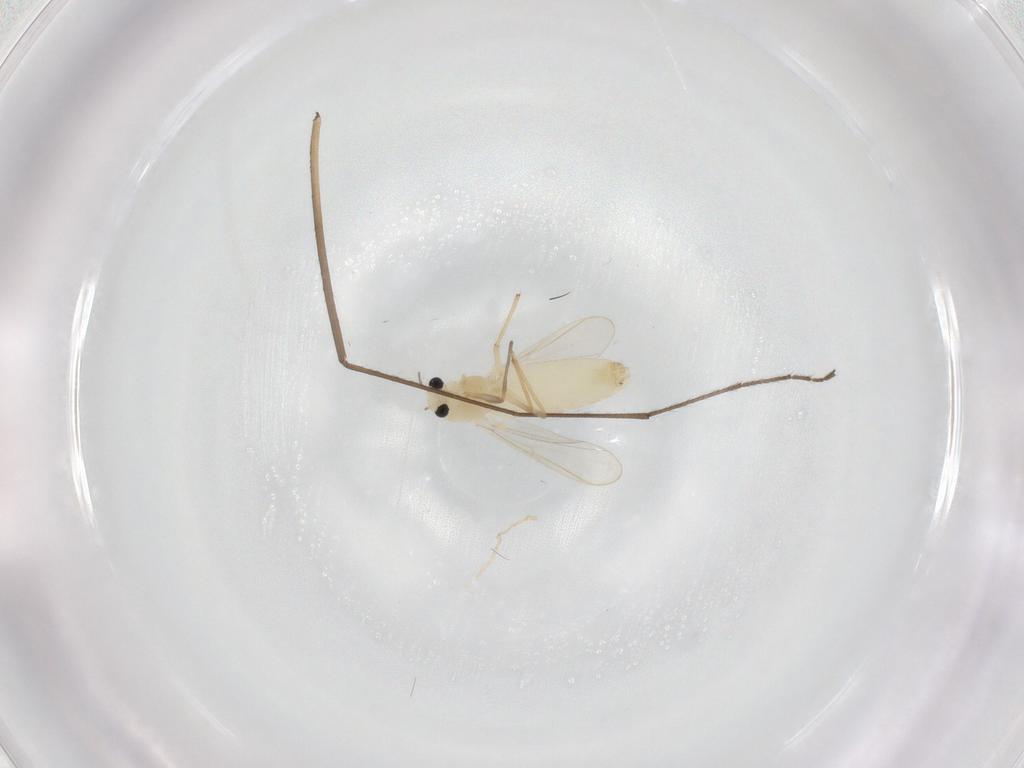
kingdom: Animalia
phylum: Arthropoda
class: Insecta
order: Diptera
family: Chironomidae
